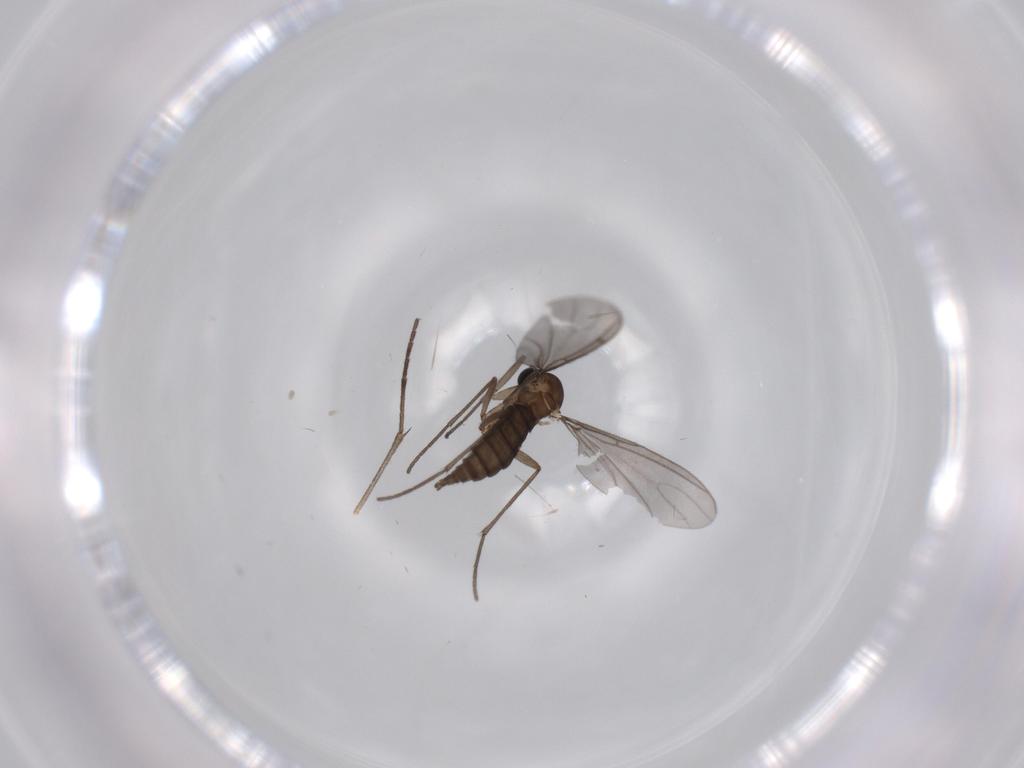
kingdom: Animalia
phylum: Arthropoda
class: Insecta
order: Diptera
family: Sciaridae
